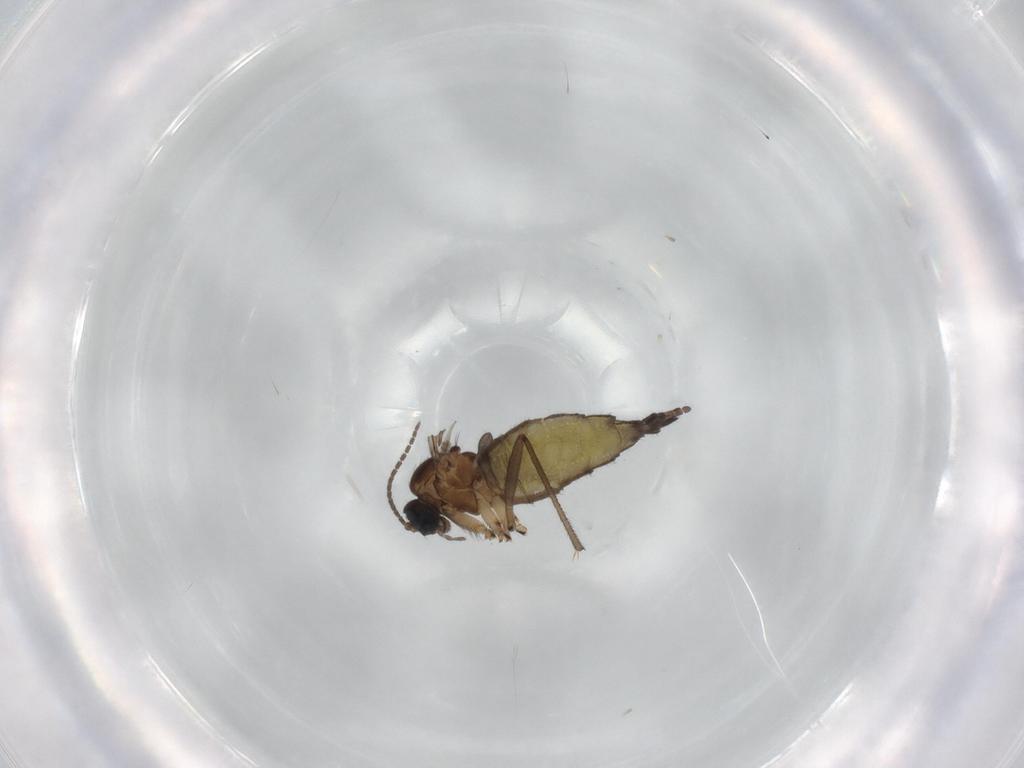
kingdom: Animalia
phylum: Arthropoda
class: Insecta
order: Diptera
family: Sciaridae
